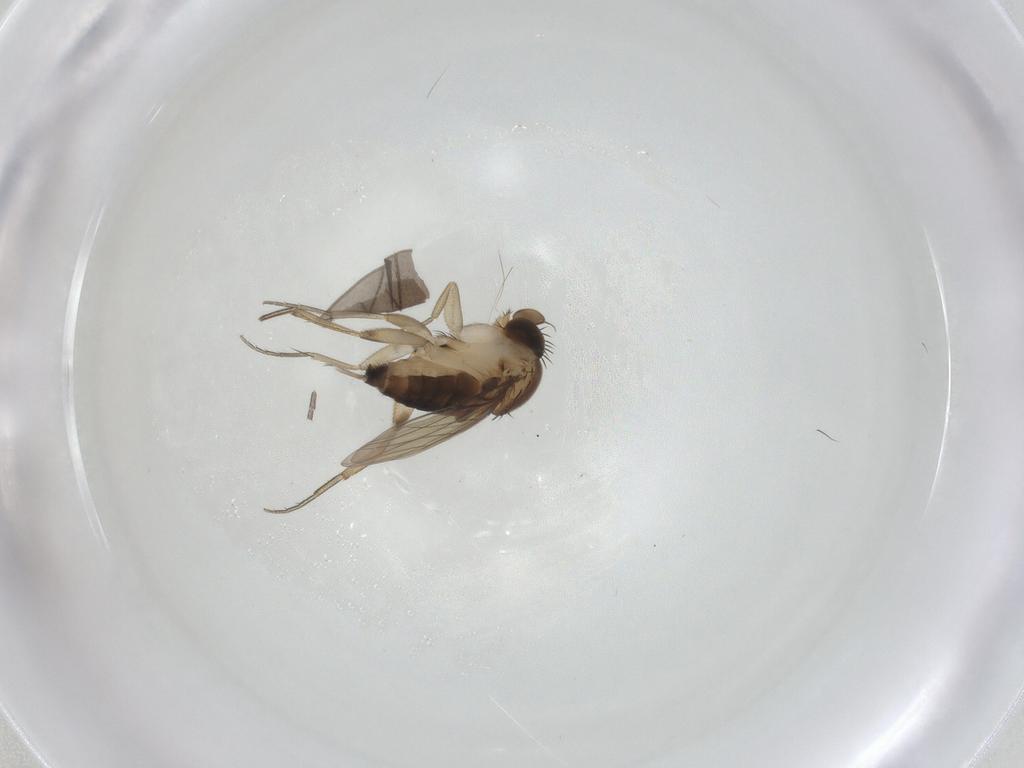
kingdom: Animalia
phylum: Arthropoda
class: Insecta
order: Diptera
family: Phoridae
